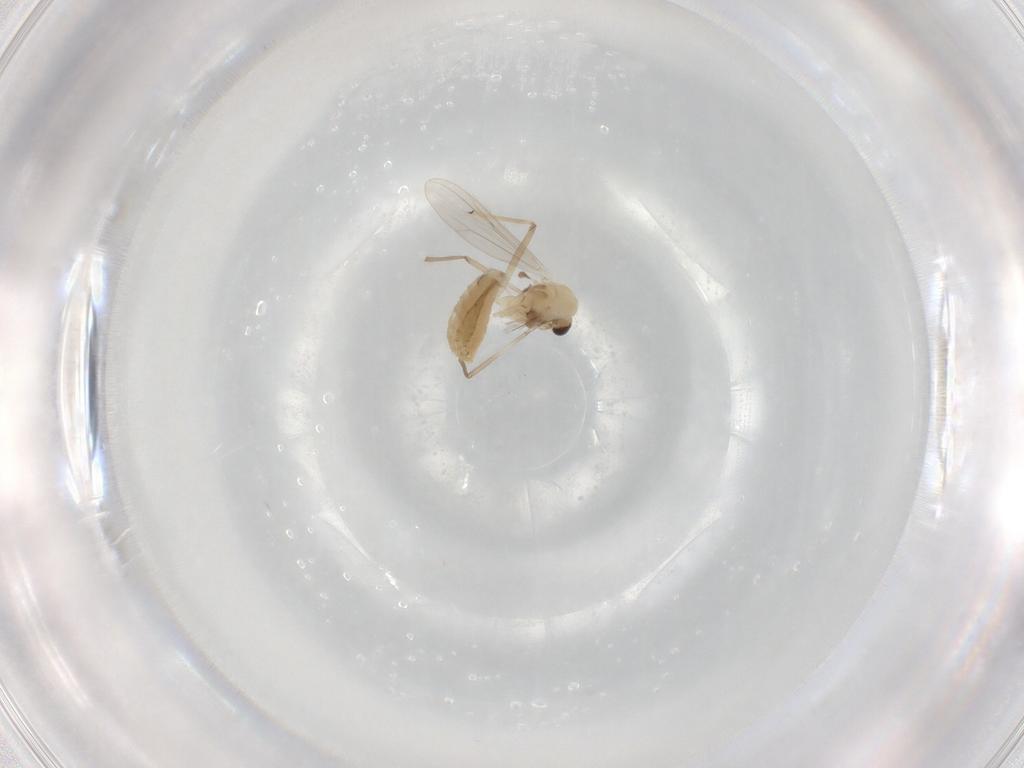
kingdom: Animalia
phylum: Arthropoda
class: Insecta
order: Diptera
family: Chironomidae
